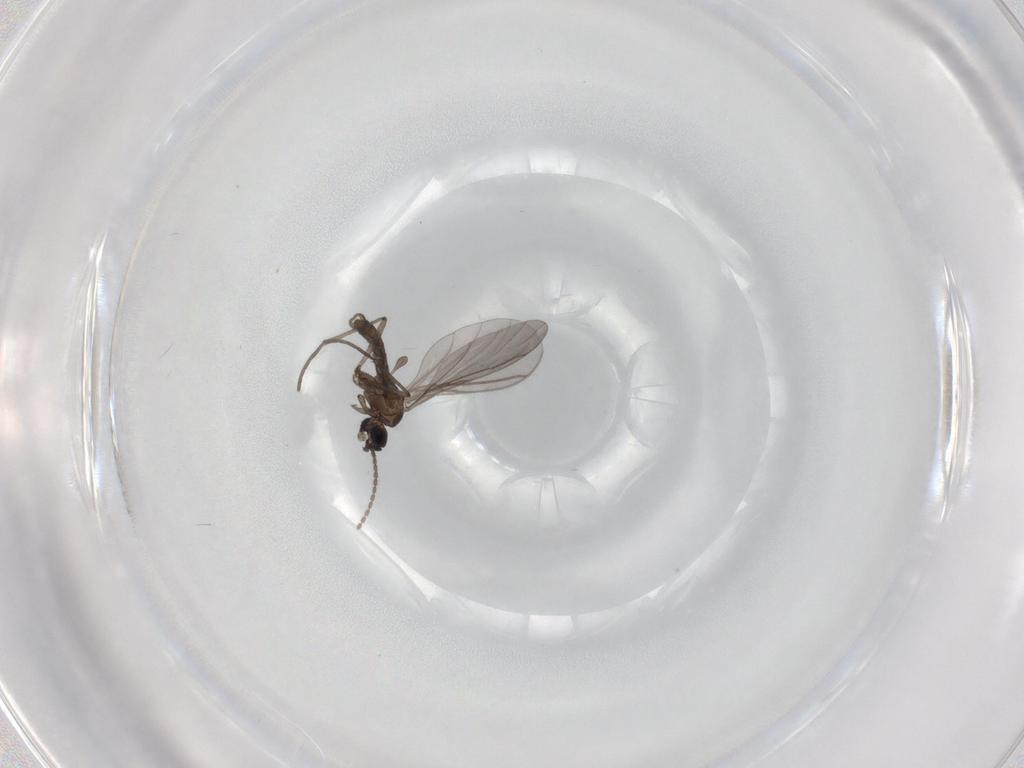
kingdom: Animalia
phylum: Arthropoda
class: Insecta
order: Diptera
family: Sciaridae
